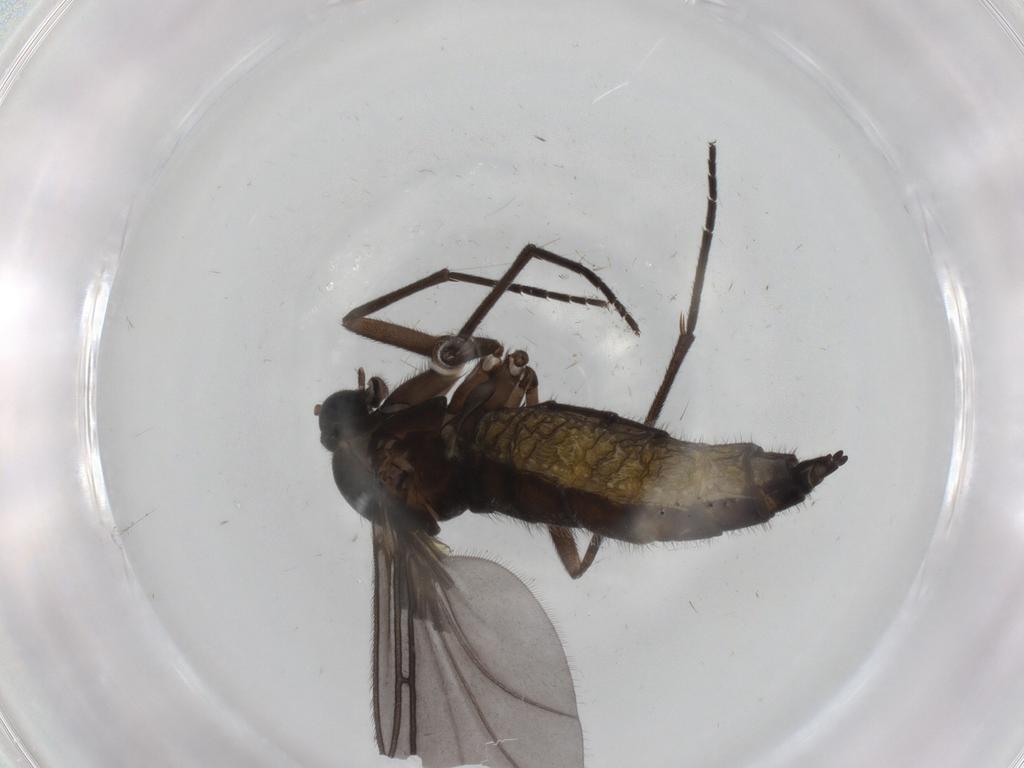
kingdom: Animalia
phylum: Arthropoda
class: Insecta
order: Diptera
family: Sciaridae
